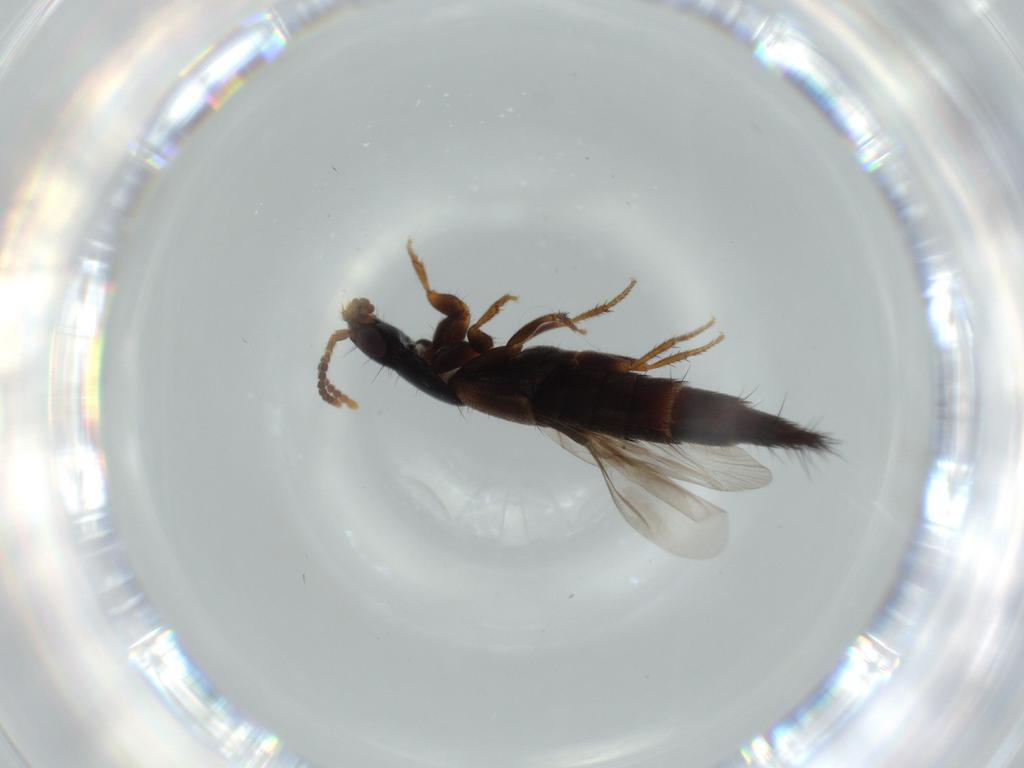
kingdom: Animalia
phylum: Arthropoda
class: Insecta
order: Coleoptera
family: Staphylinidae
